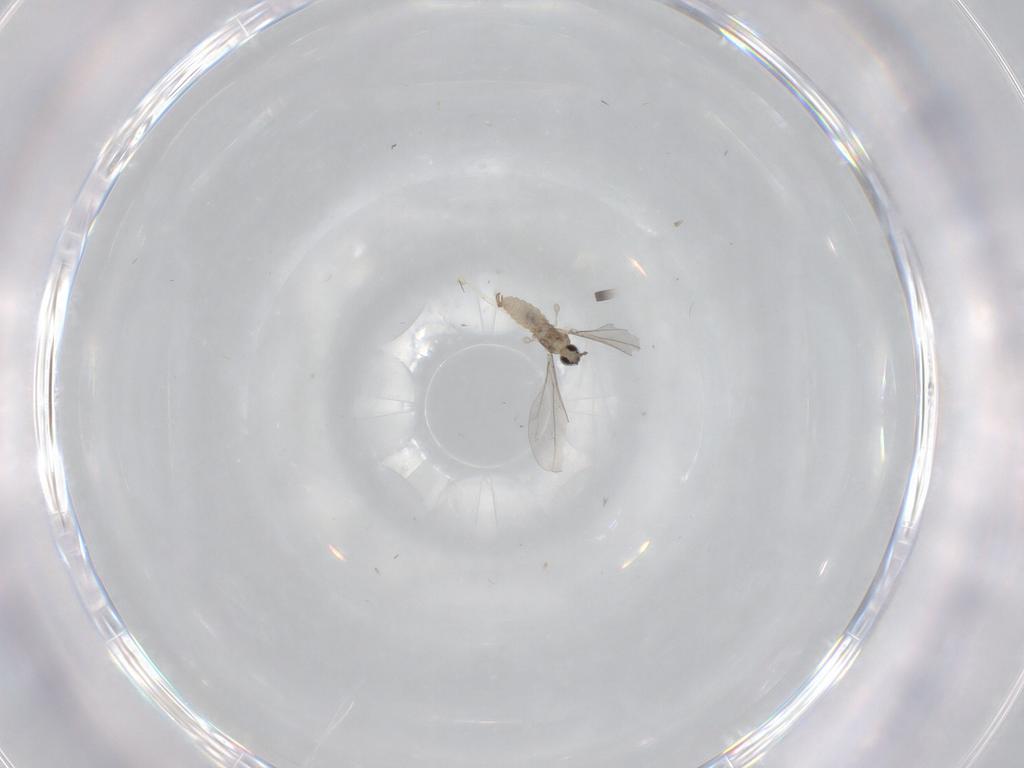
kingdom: Animalia
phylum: Arthropoda
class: Insecta
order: Diptera
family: Cecidomyiidae
